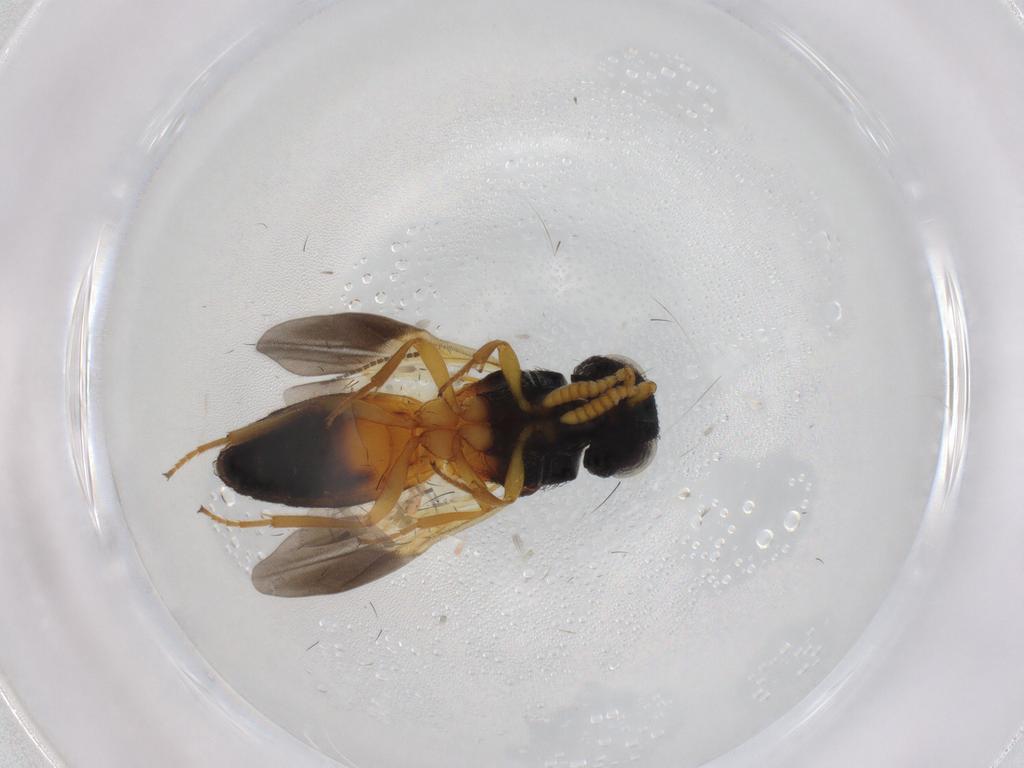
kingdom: Animalia
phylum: Arthropoda
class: Insecta
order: Hymenoptera
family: Scelionidae
